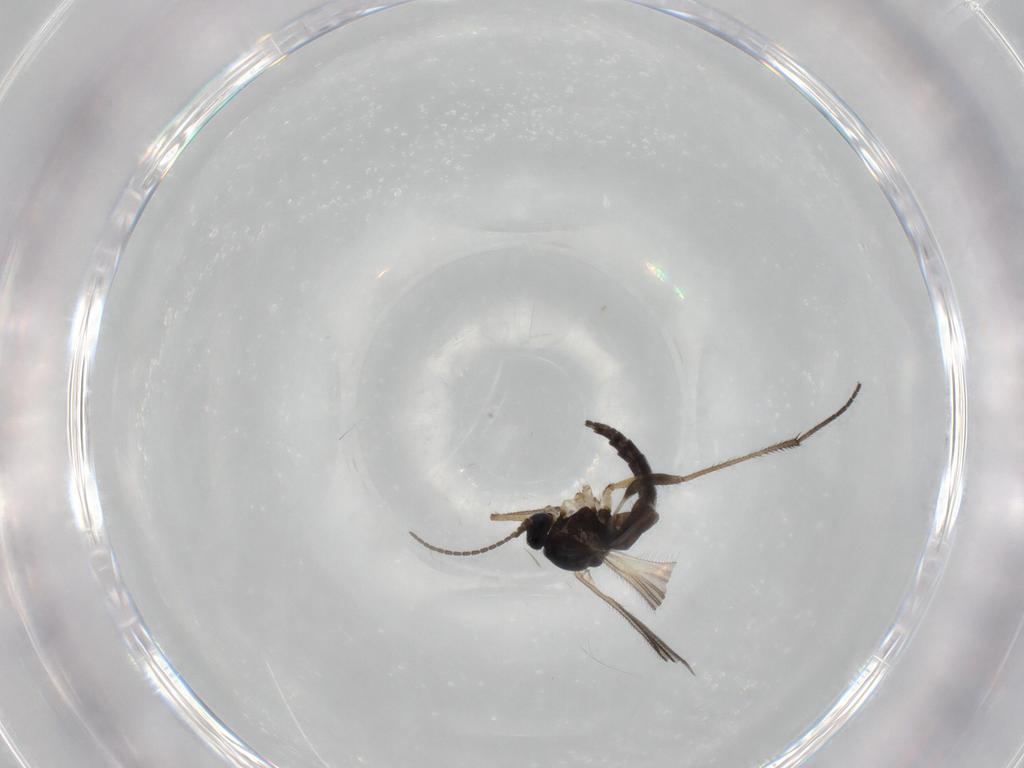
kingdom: Animalia
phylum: Arthropoda
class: Insecta
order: Diptera
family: Sciaridae
